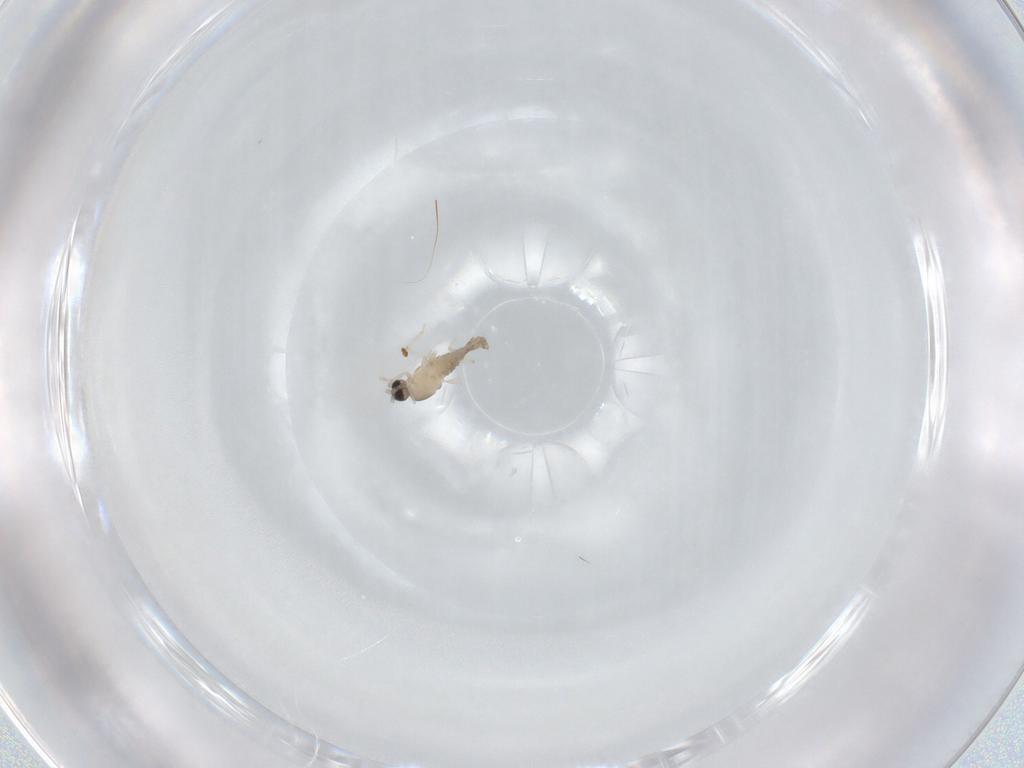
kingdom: Animalia
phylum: Arthropoda
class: Insecta
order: Diptera
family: Cecidomyiidae
